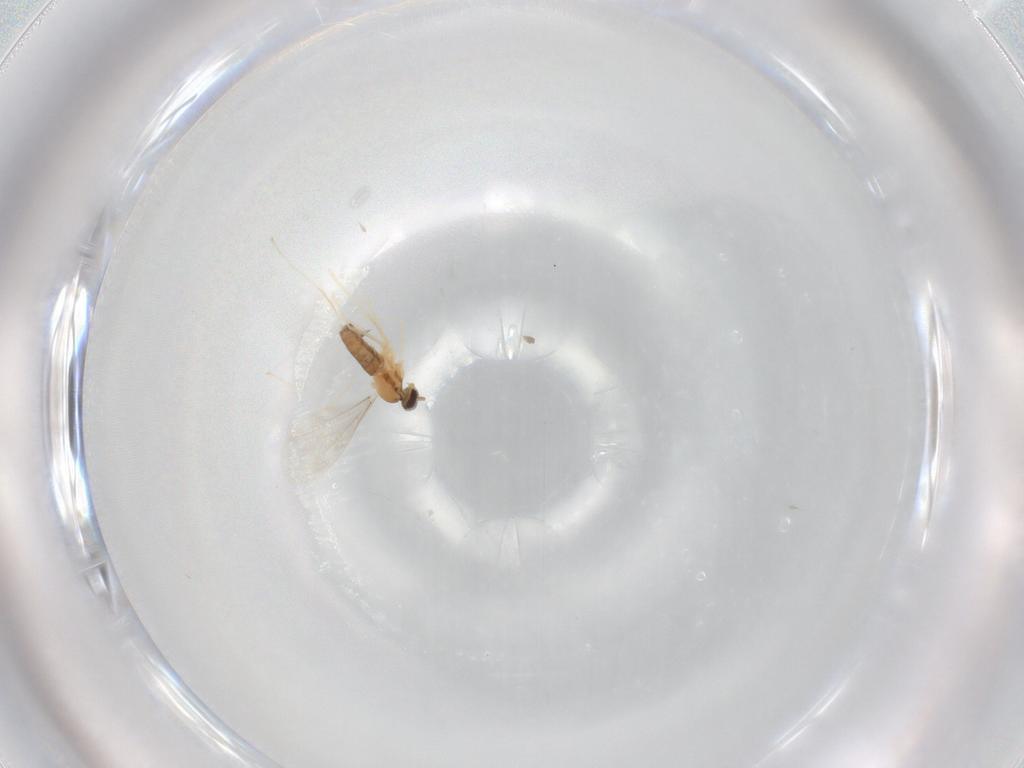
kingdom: Animalia
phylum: Arthropoda
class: Insecta
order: Diptera
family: Cecidomyiidae
